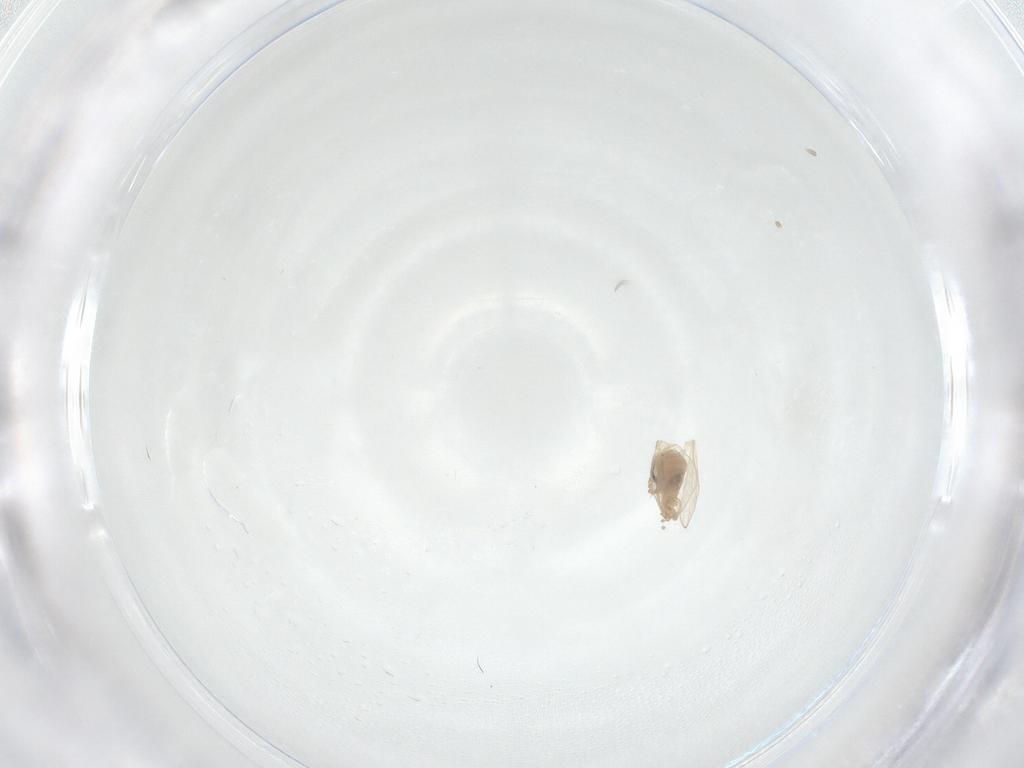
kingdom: Animalia
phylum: Arthropoda
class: Insecta
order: Diptera
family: Psychodidae
